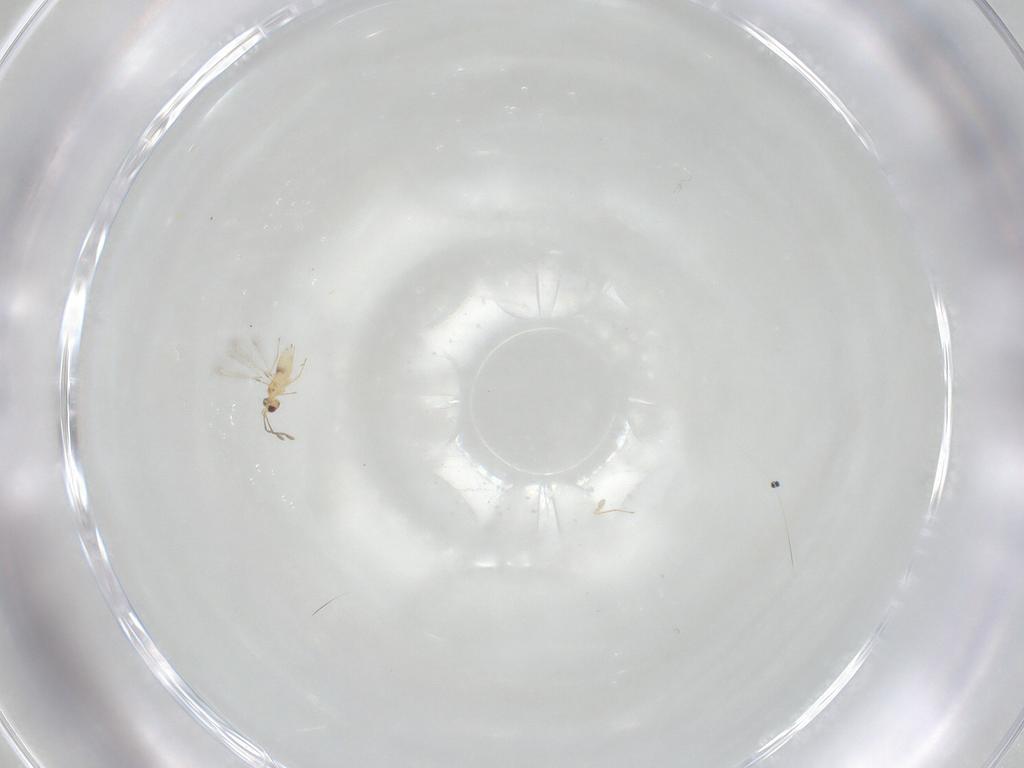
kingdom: Animalia
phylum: Arthropoda
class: Insecta
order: Hymenoptera
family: Mymaridae
